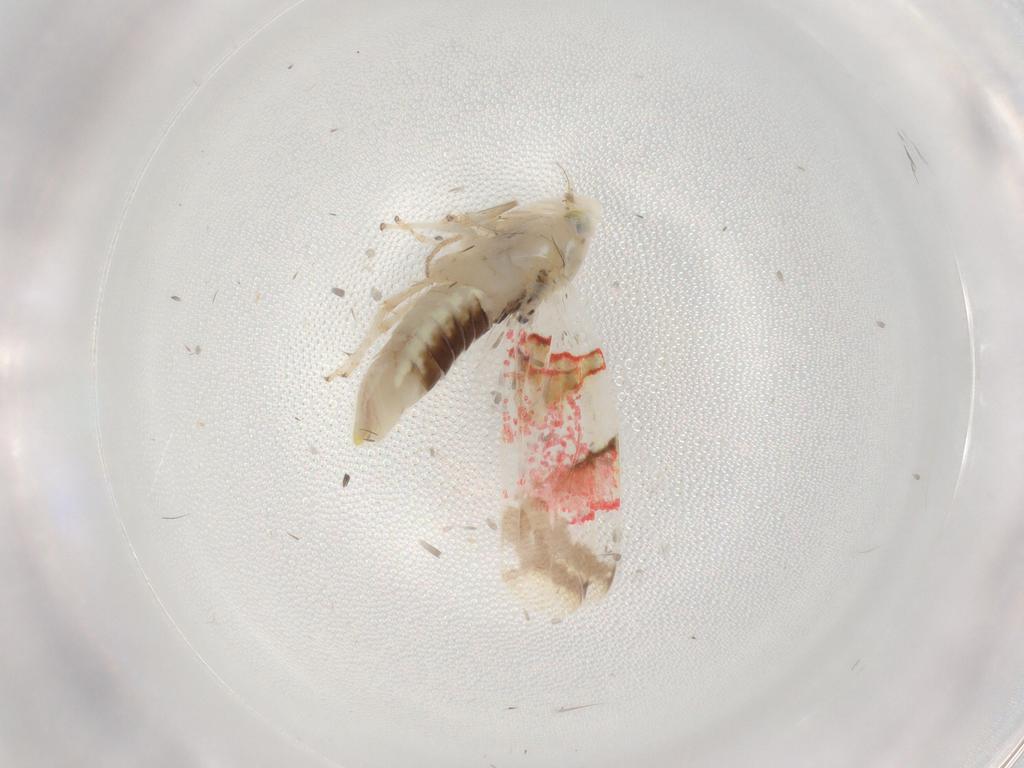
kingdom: Animalia
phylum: Arthropoda
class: Insecta
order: Hemiptera
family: Cicadellidae
